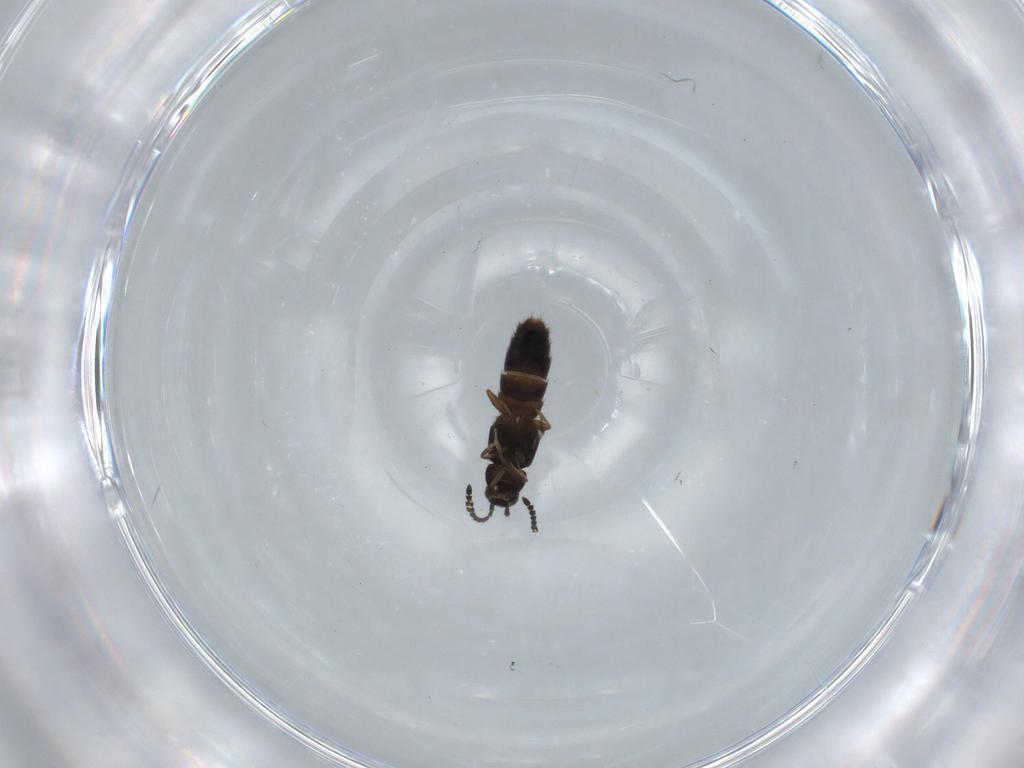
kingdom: Animalia
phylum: Arthropoda
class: Insecta
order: Coleoptera
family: Staphylinidae
